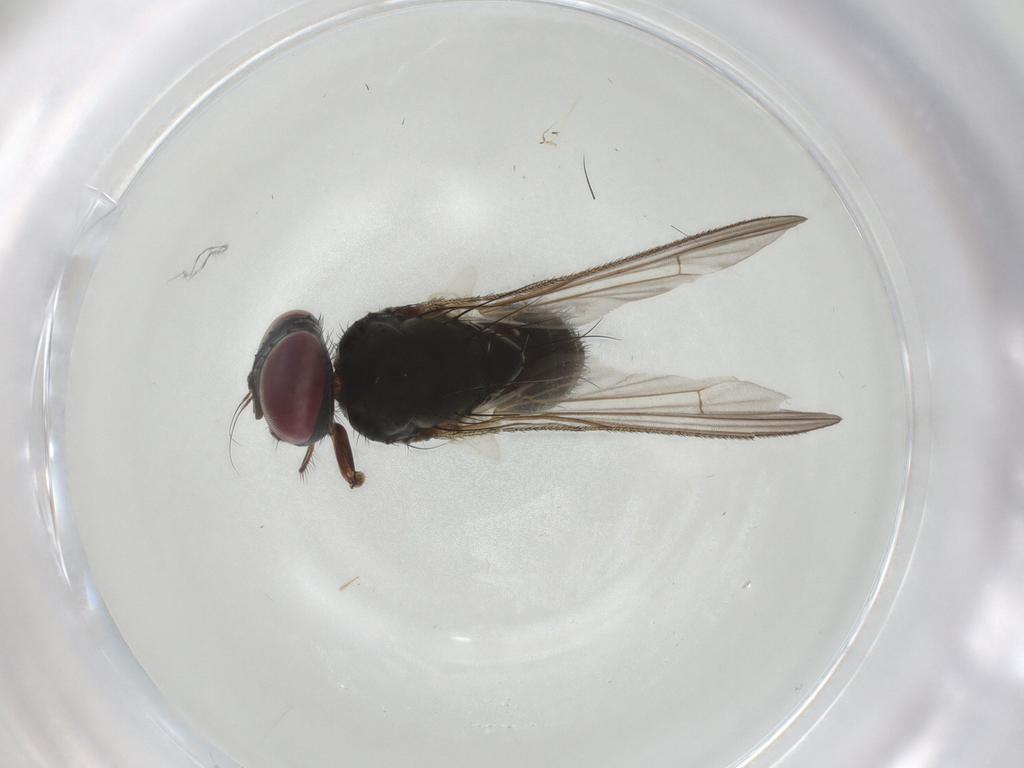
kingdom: Animalia
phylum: Arthropoda
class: Insecta
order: Diptera
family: Muscidae
